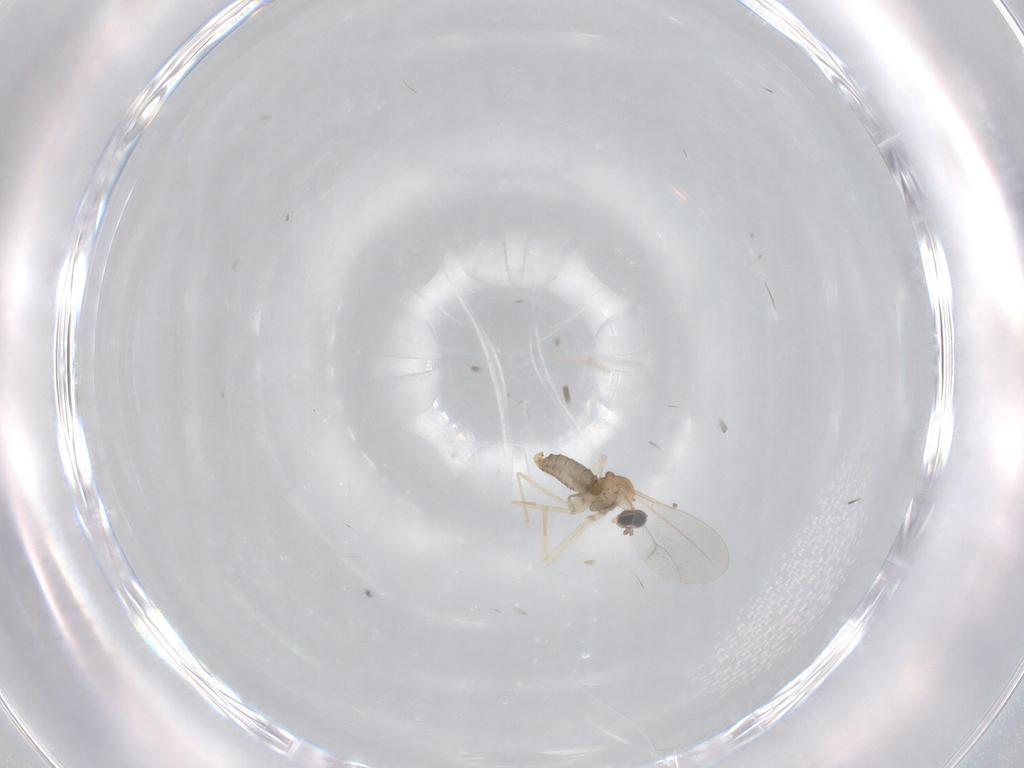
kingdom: Animalia
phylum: Arthropoda
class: Insecta
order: Diptera
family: Cecidomyiidae
